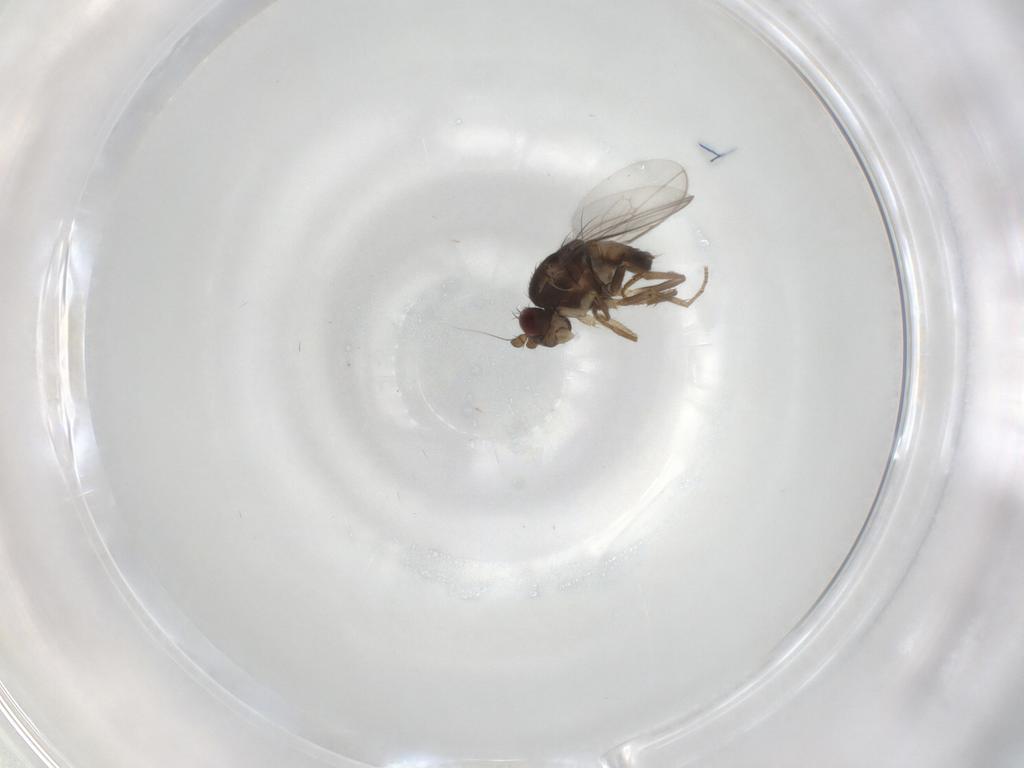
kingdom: Animalia
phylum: Arthropoda
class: Insecta
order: Diptera
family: Sphaeroceridae
